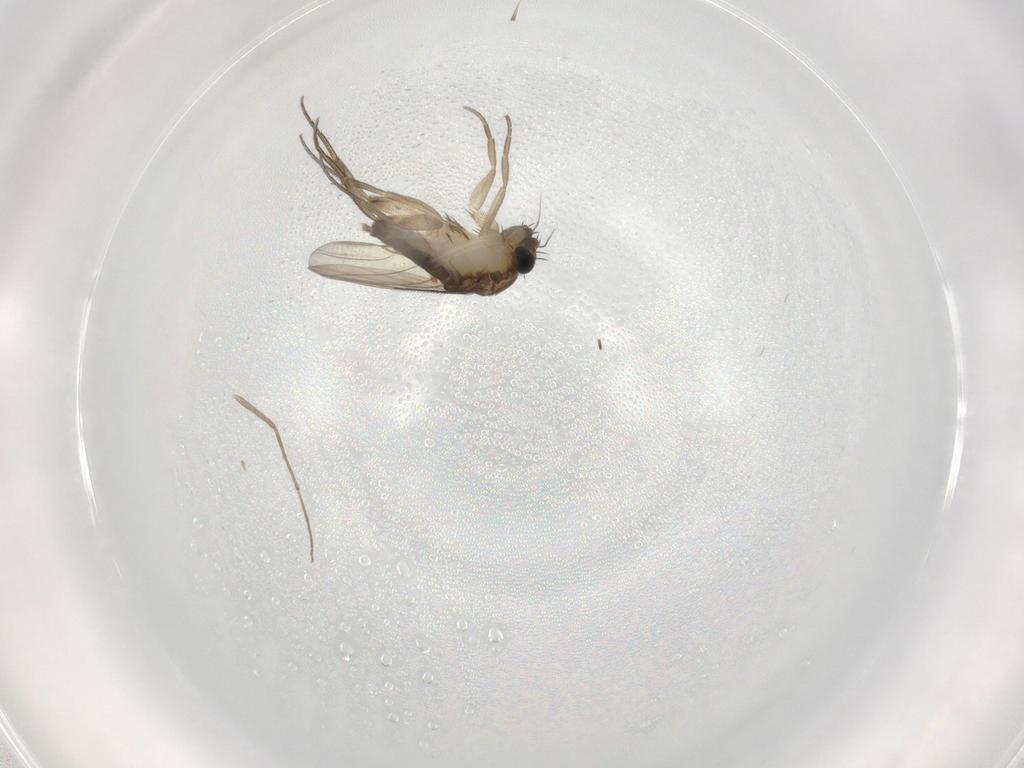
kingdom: Animalia
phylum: Arthropoda
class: Insecta
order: Diptera
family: Phoridae
